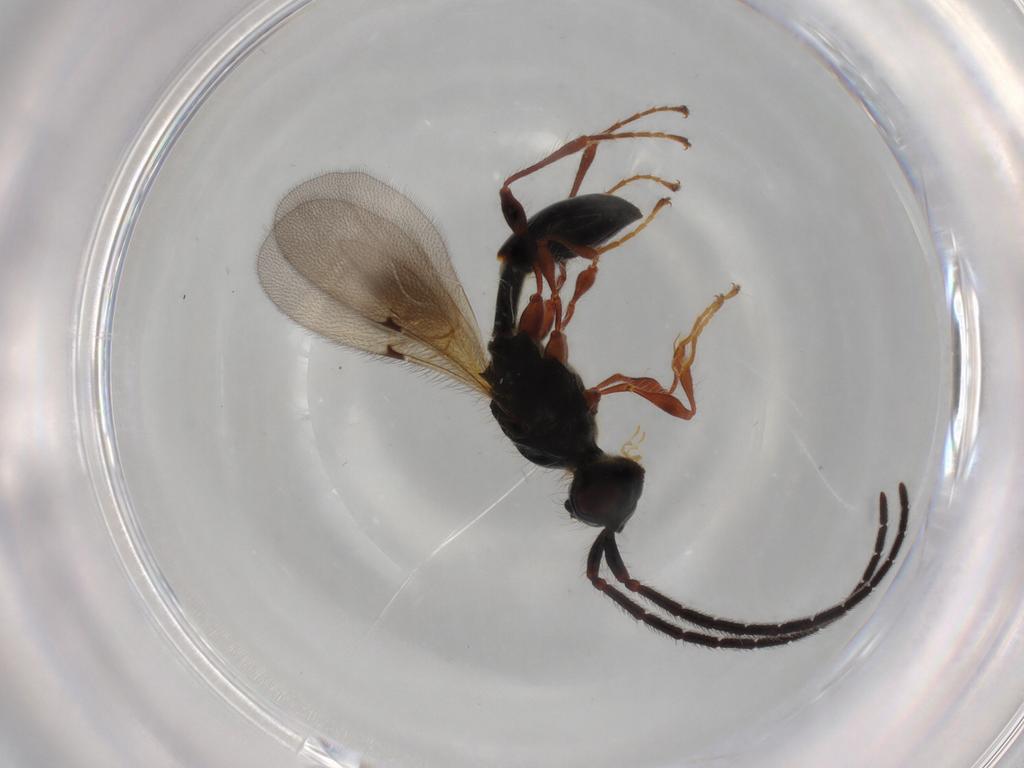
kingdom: Animalia
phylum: Arthropoda
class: Insecta
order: Hymenoptera
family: Diapriidae
